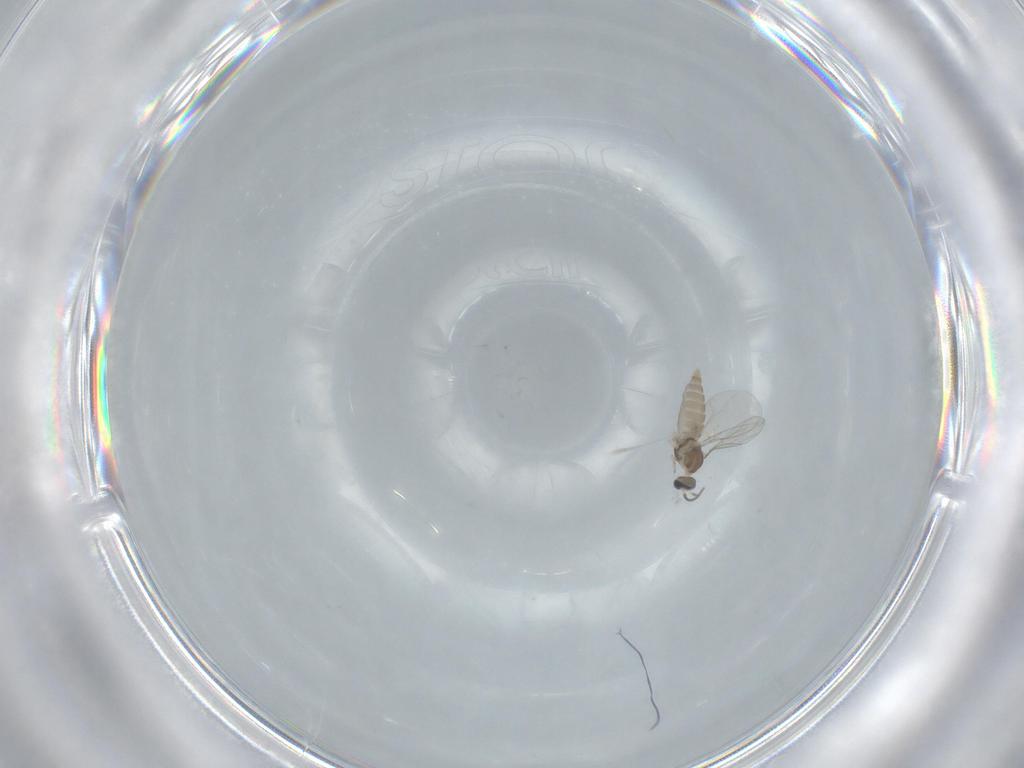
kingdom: Animalia
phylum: Arthropoda
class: Insecta
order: Diptera
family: Cecidomyiidae
